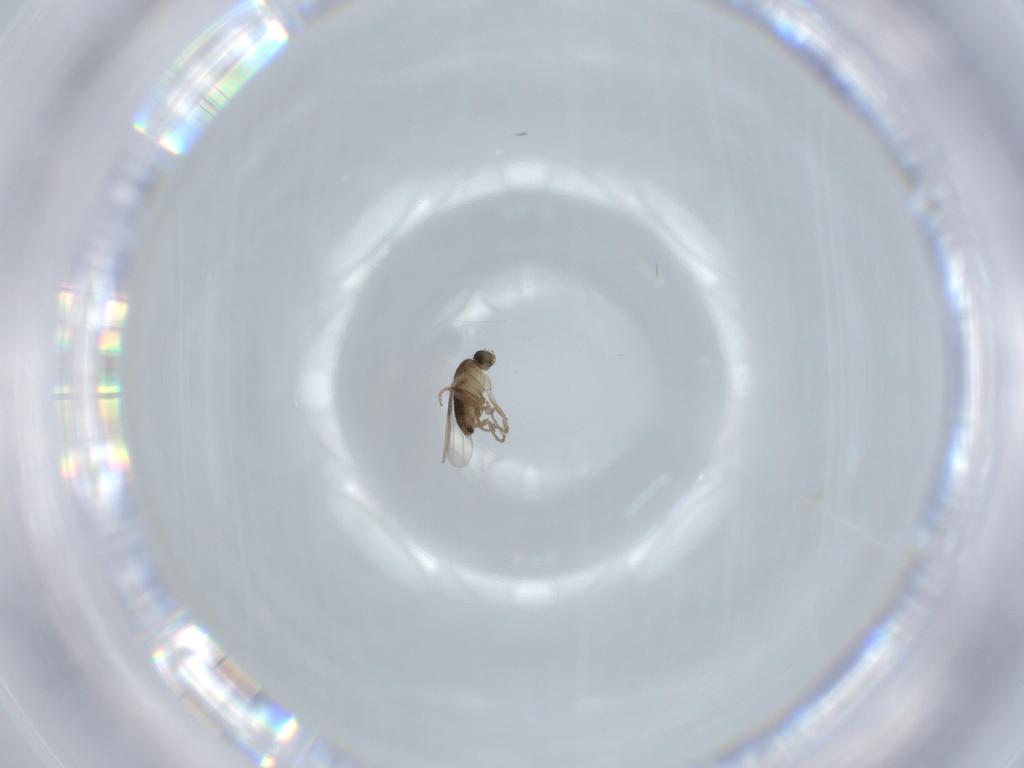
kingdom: Animalia
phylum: Arthropoda
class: Insecta
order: Diptera
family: Phoridae
